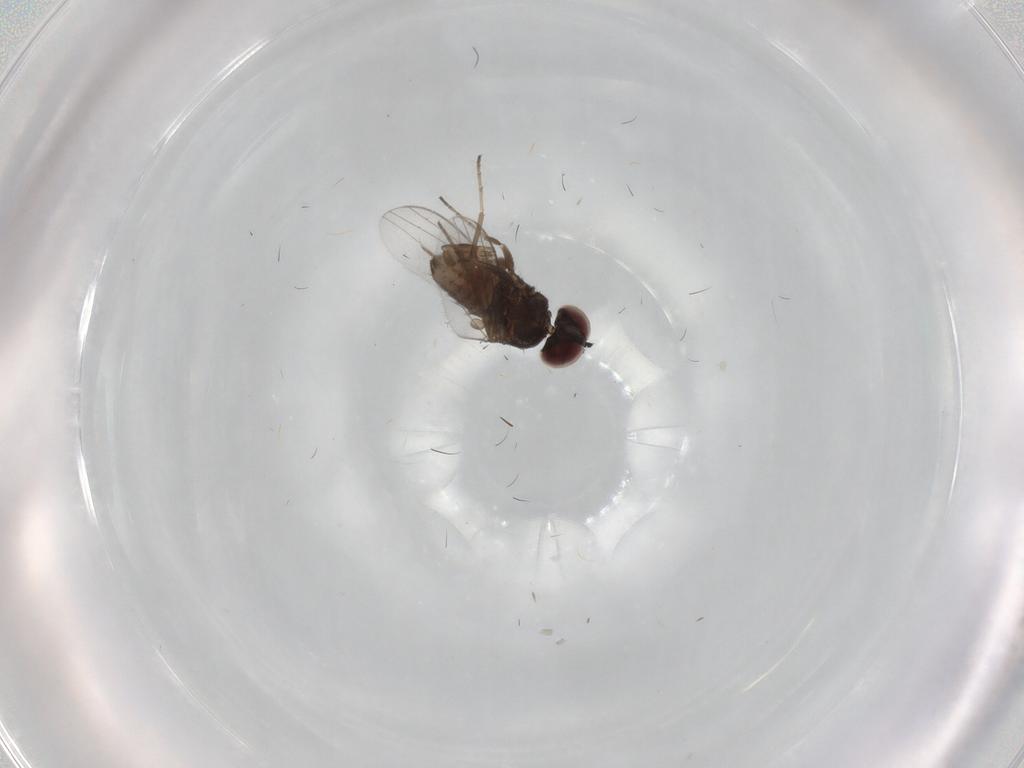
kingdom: Animalia
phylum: Arthropoda
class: Insecta
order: Diptera
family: Dolichopodidae
